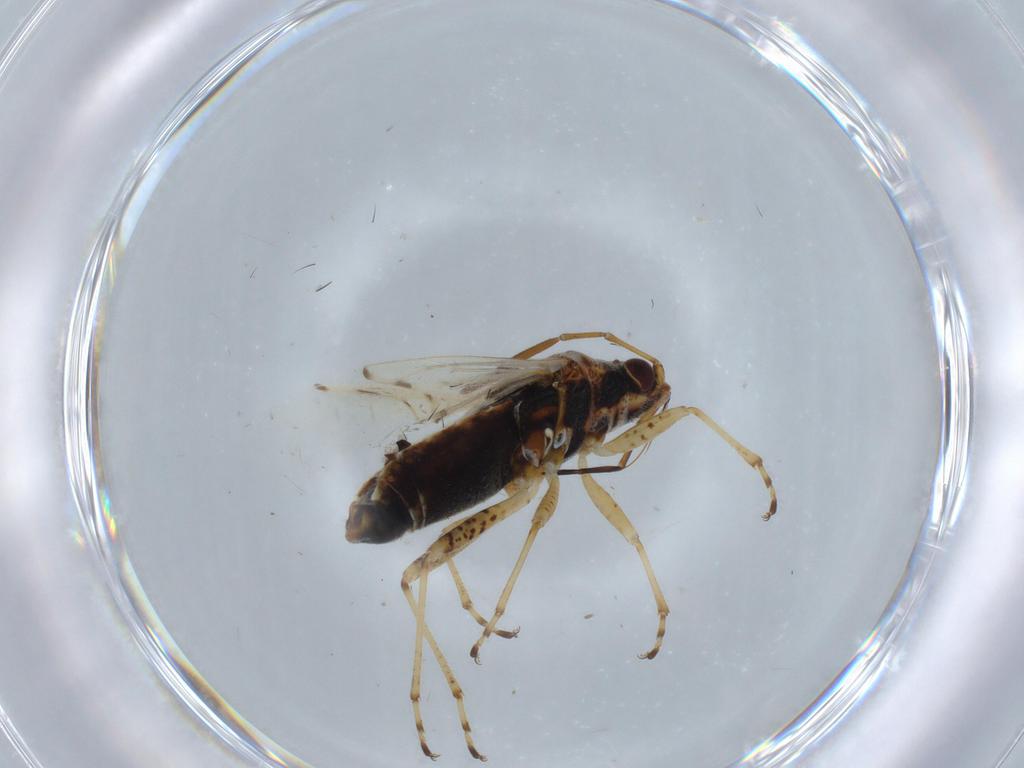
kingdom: Animalia
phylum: Arthropoda
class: Insecta
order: Hemiptera
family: Lygaeidae
